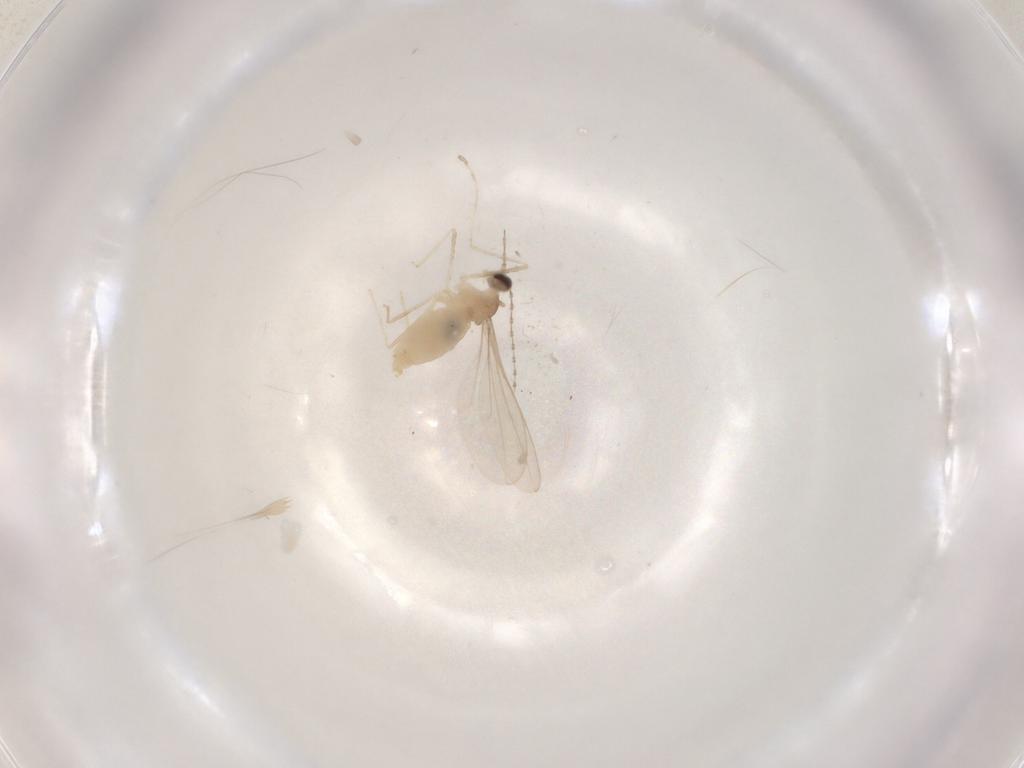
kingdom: Animalia
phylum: Arthropoda
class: Insecta
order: Diptera
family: Cecidomyiidae
